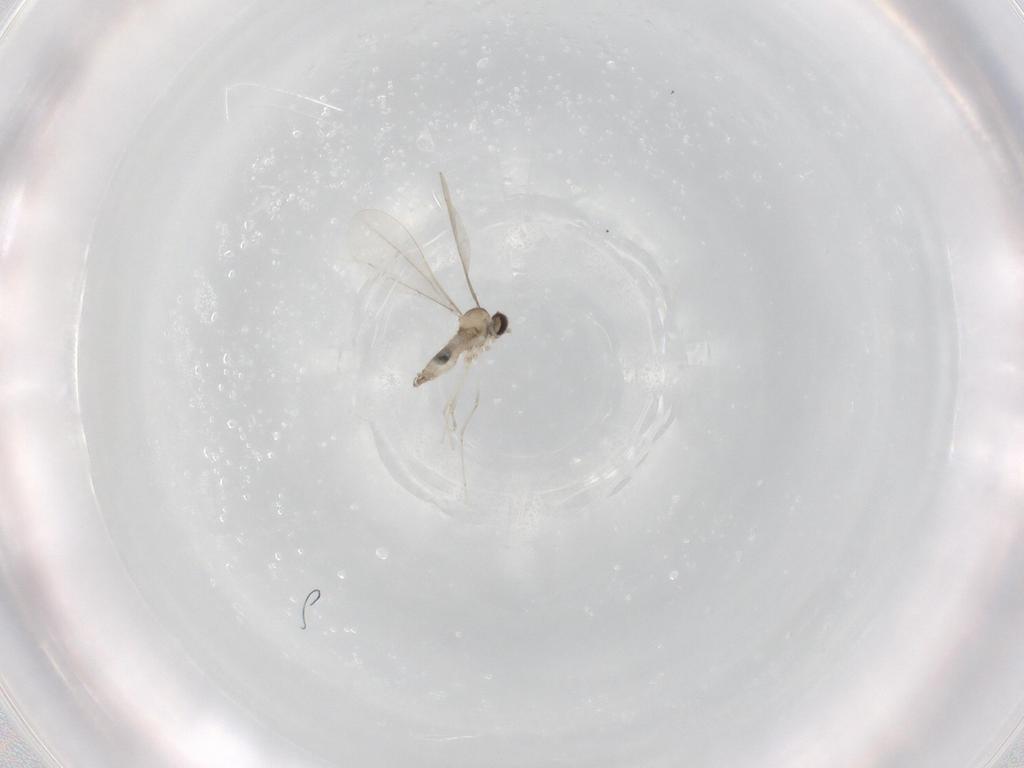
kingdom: Animalia
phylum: Arthropoda
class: Insecta
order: Diptera
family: Cecidomyiidae
